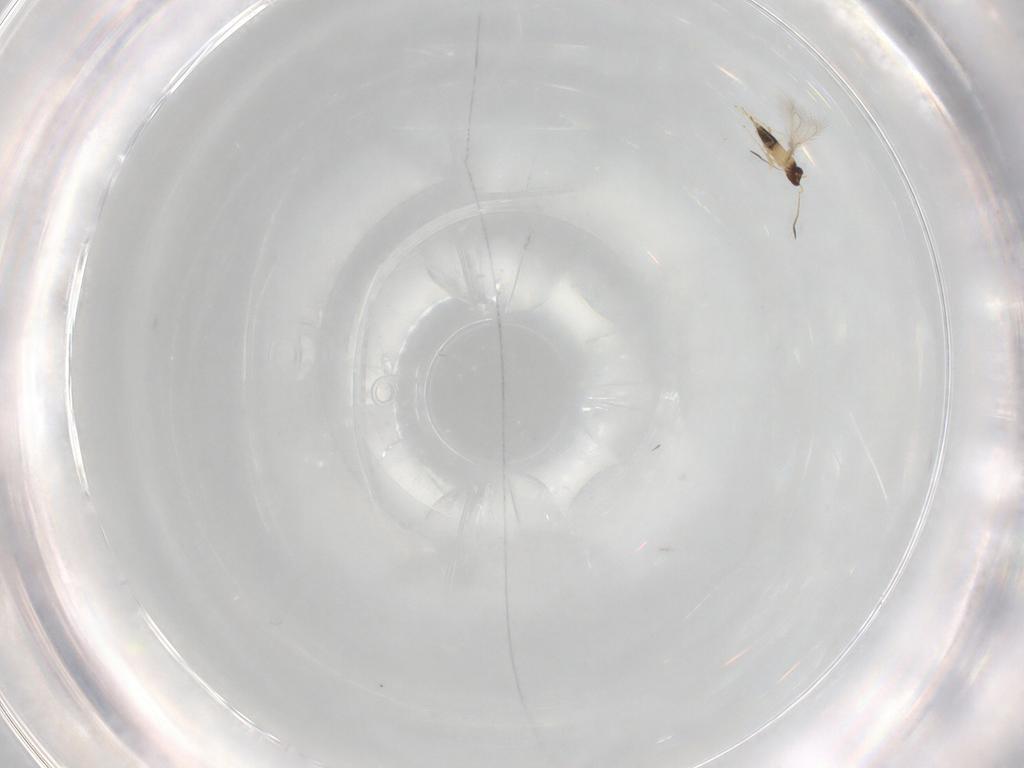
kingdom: Animalia
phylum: Arthropoda
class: Insecta
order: Hymenoptera
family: Mymaridae
